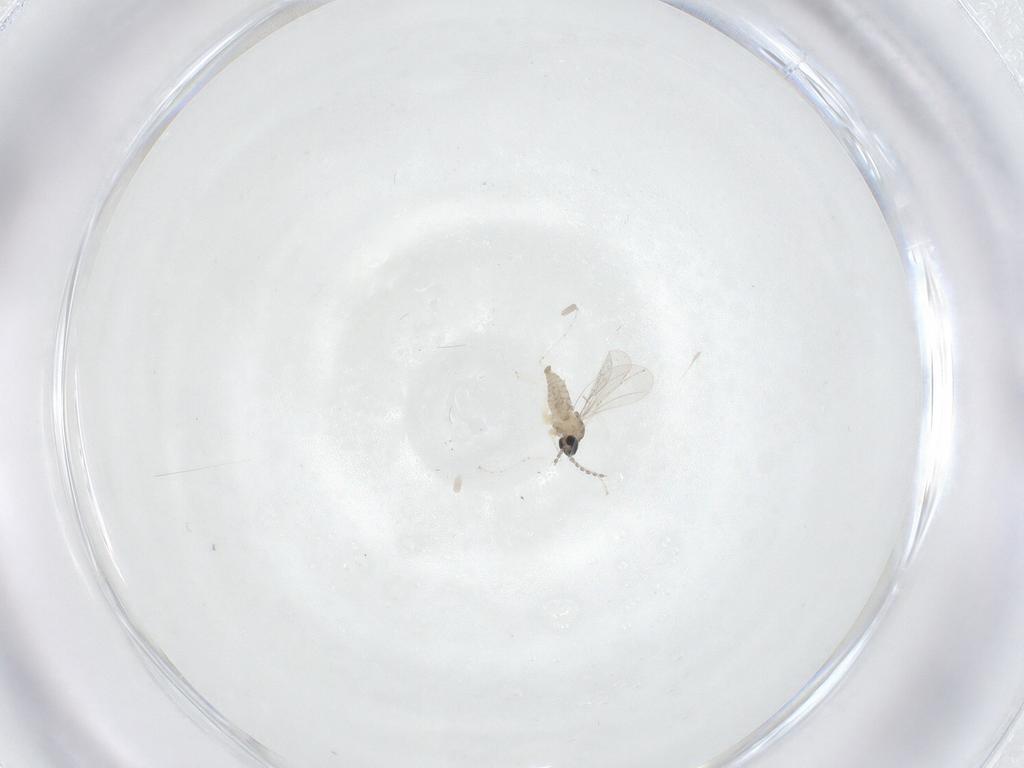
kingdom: Animalia
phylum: Arthropoda
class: Insecta
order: Diptera
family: Cecidomyiidae
